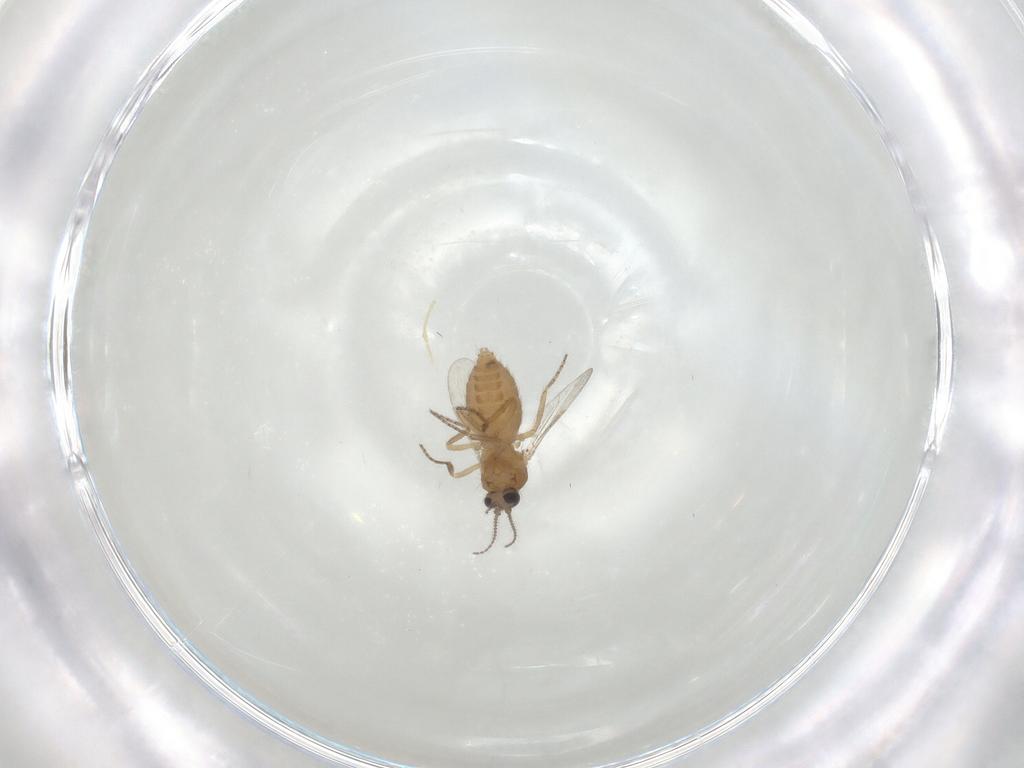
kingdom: Animalia
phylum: Arthropoda
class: Insecta
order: Diptera
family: Ceratopogonidae
